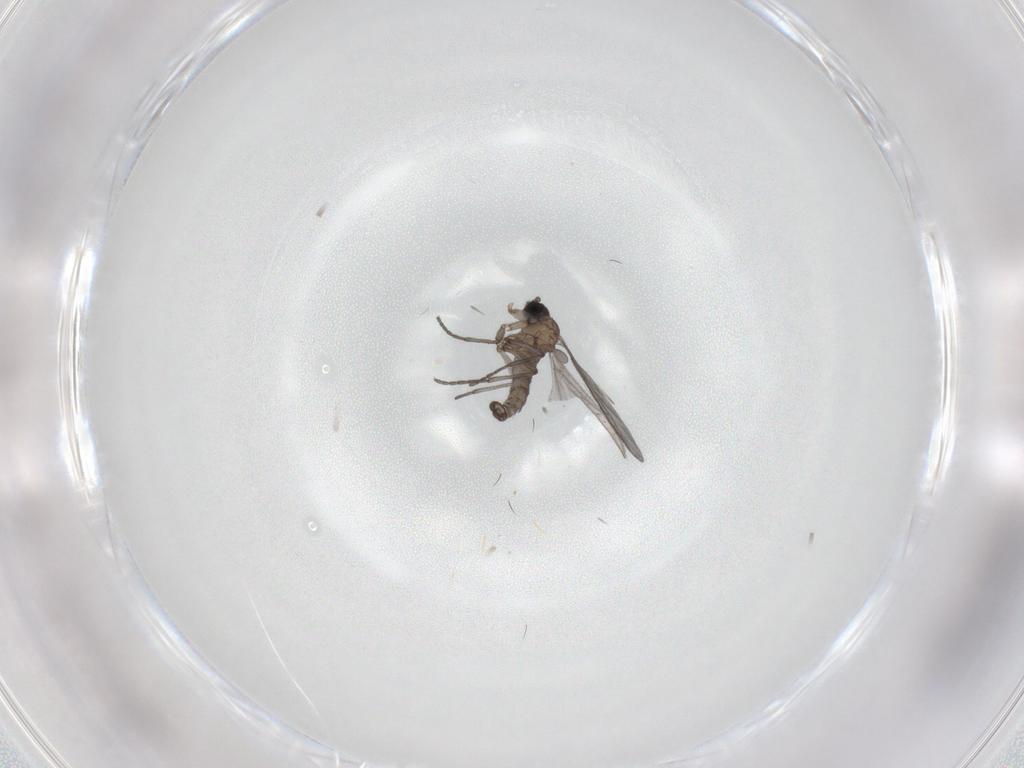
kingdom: Animalia
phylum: Arthropoda
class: Insecta
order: Diptera
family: Sciaridae
